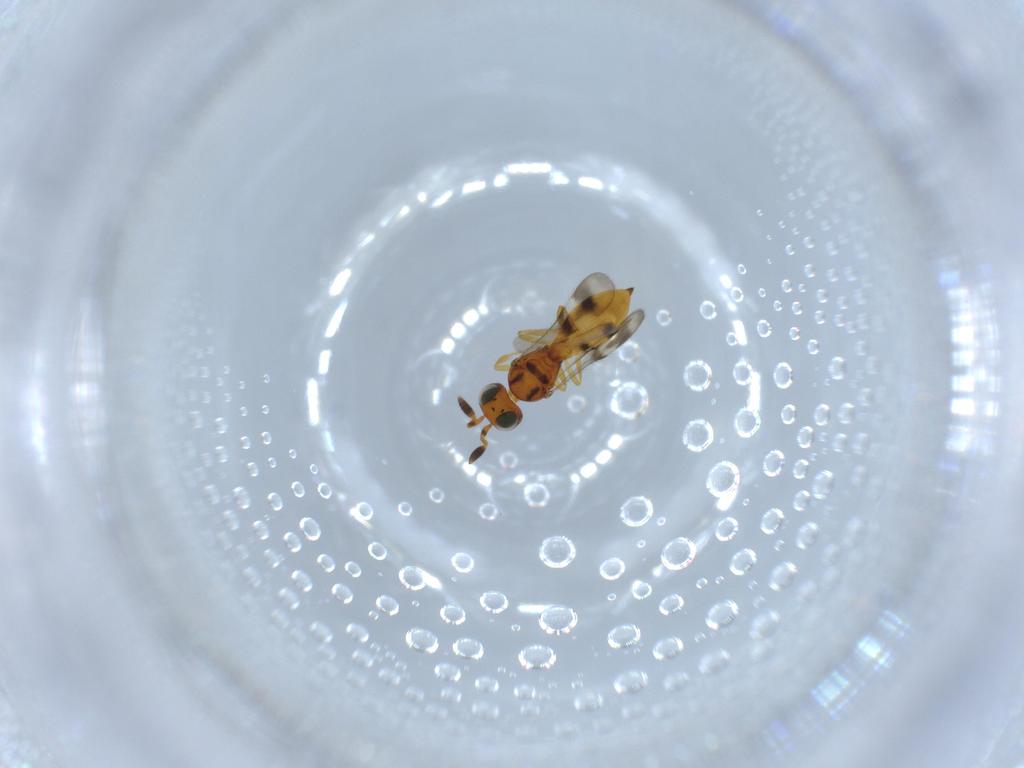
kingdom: Animalia
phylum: Arthropoda
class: Insecta
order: Hymenoptera
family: Scelionidae
